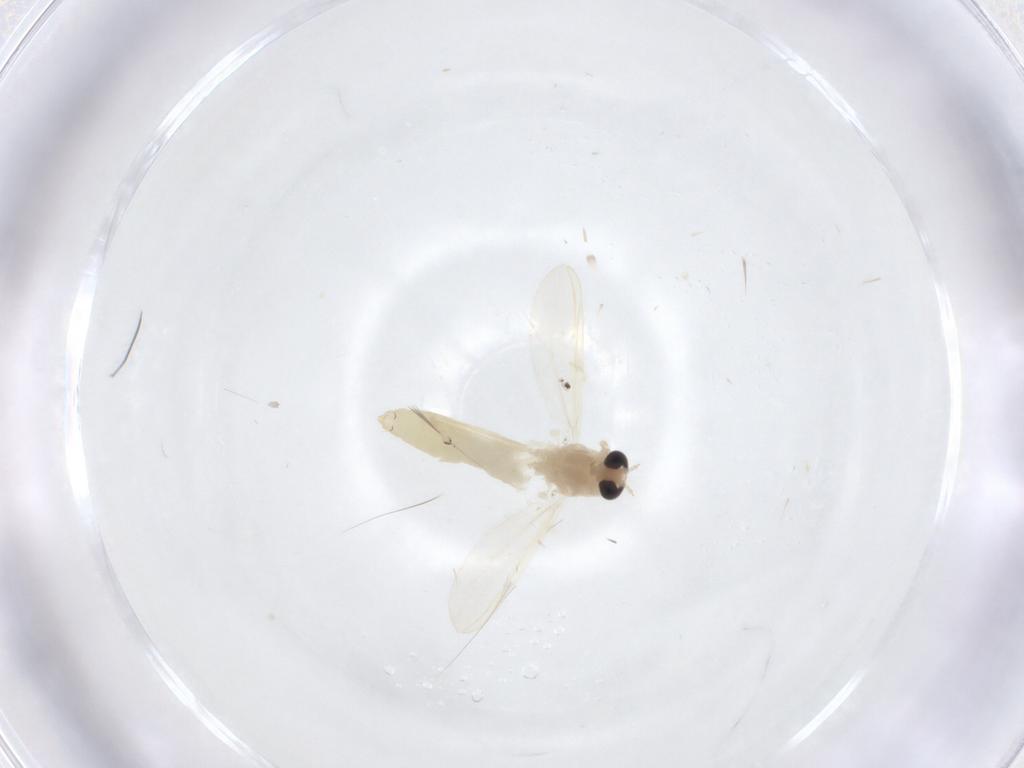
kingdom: Animalia
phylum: Arthropoda
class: Insecta
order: Diptera
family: Chironomidae
